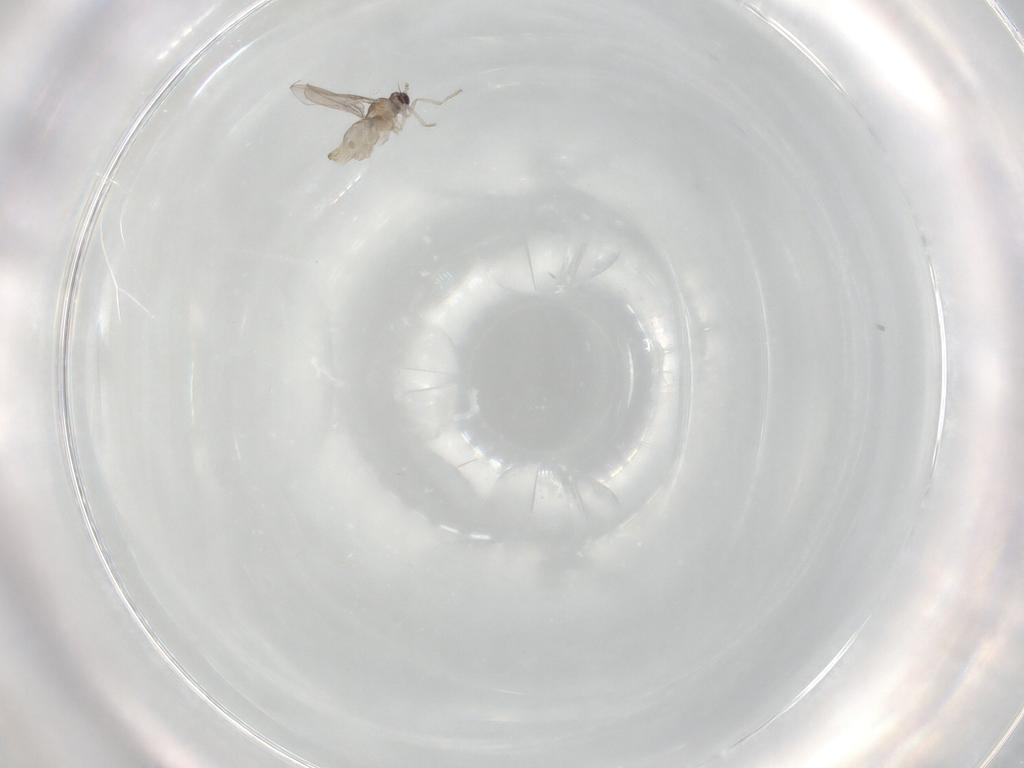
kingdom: Animalia
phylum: Arthropoda
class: Insecta
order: Diptera
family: Phoridae
